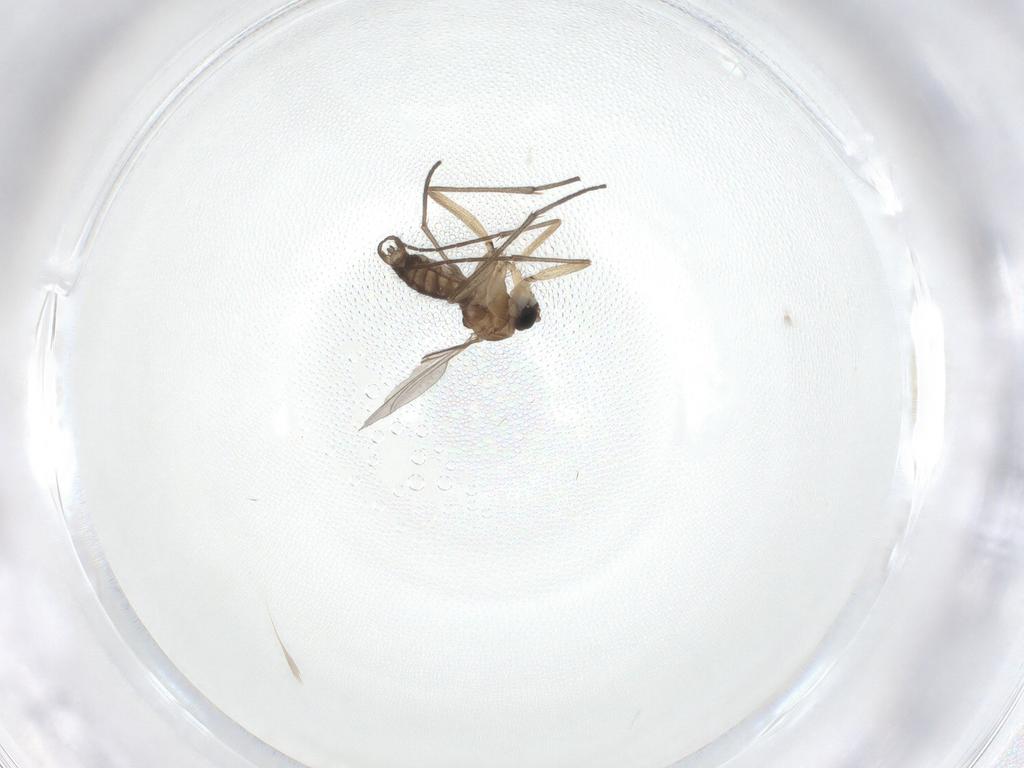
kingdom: Animalia
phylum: Arthropoda
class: Insecta
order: Diptera
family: Sciaridae
